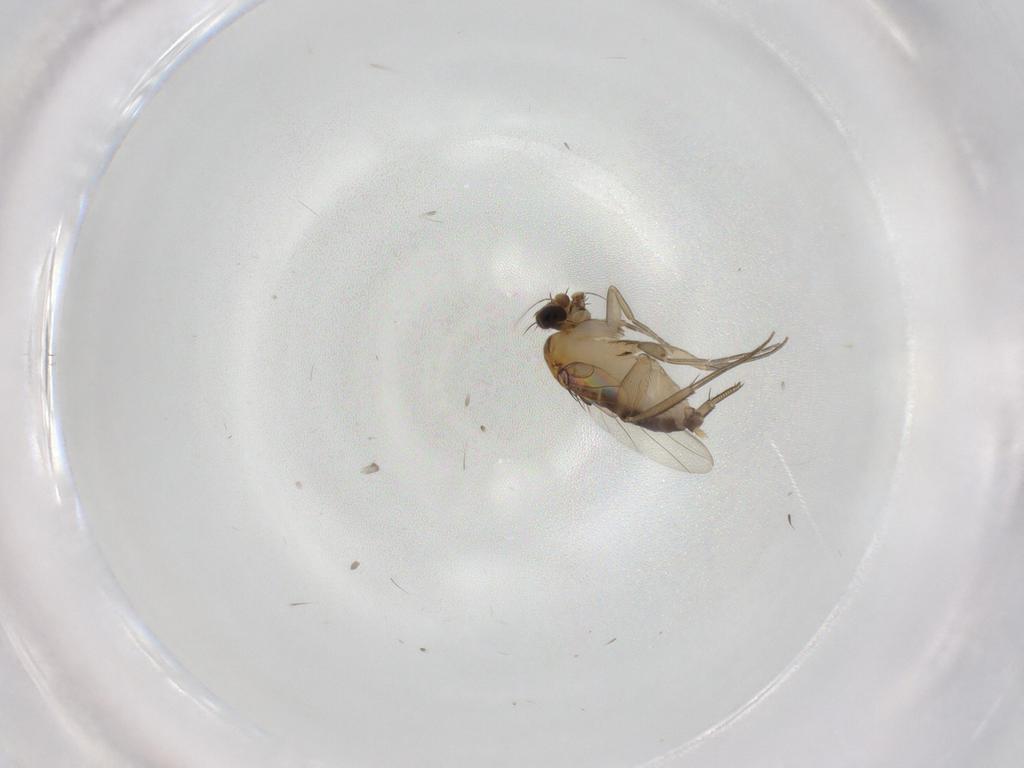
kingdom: Animalia
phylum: Arthropoda
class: Insecta
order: Diptera
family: Phoridae
